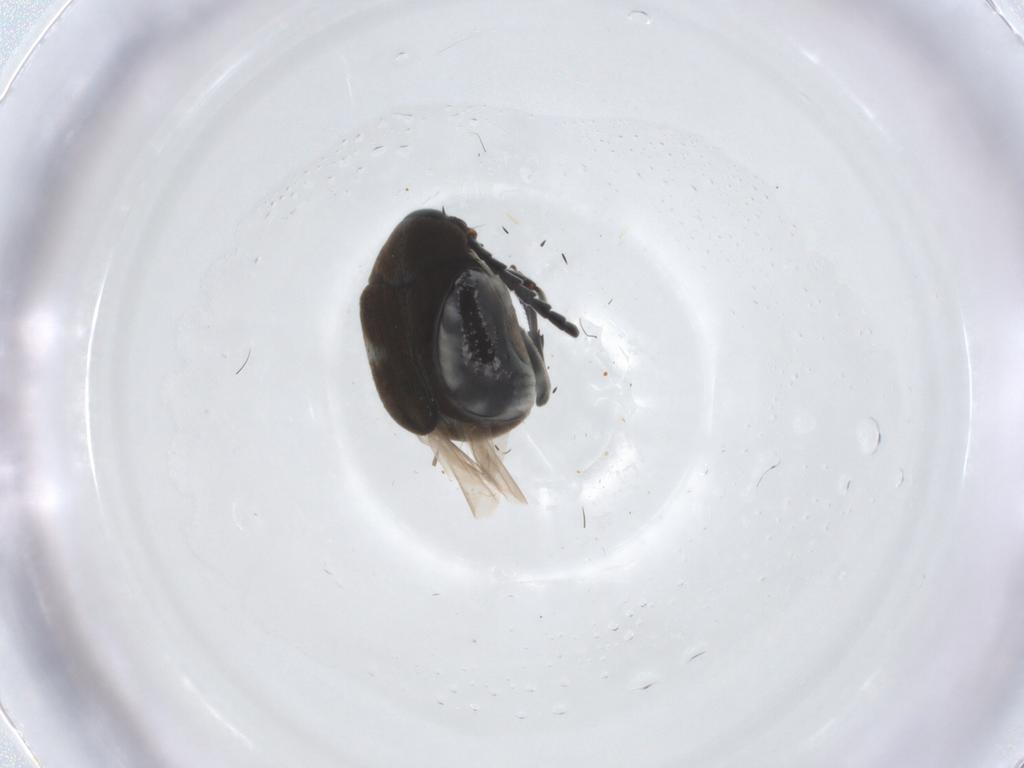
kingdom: Animalia
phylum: Arthropoda
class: Insecta
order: Coleoptera
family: Chrysomelidae
